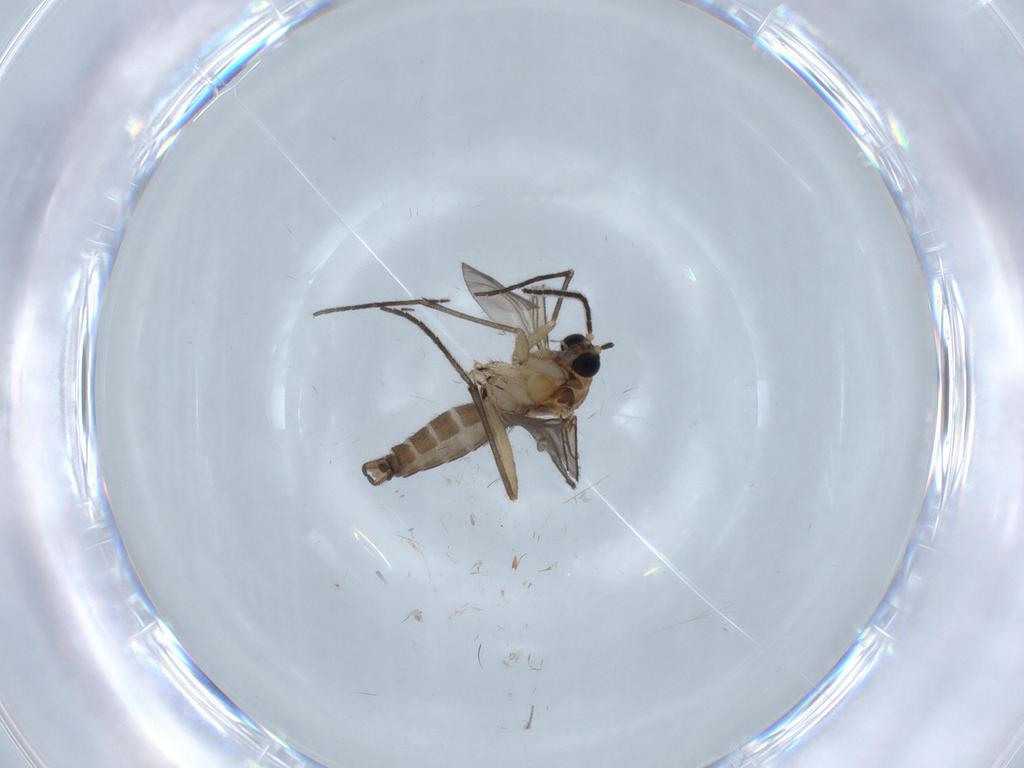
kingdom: Animalia
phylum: Arthropoda
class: Insecta
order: Diptera
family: Sciaridae
